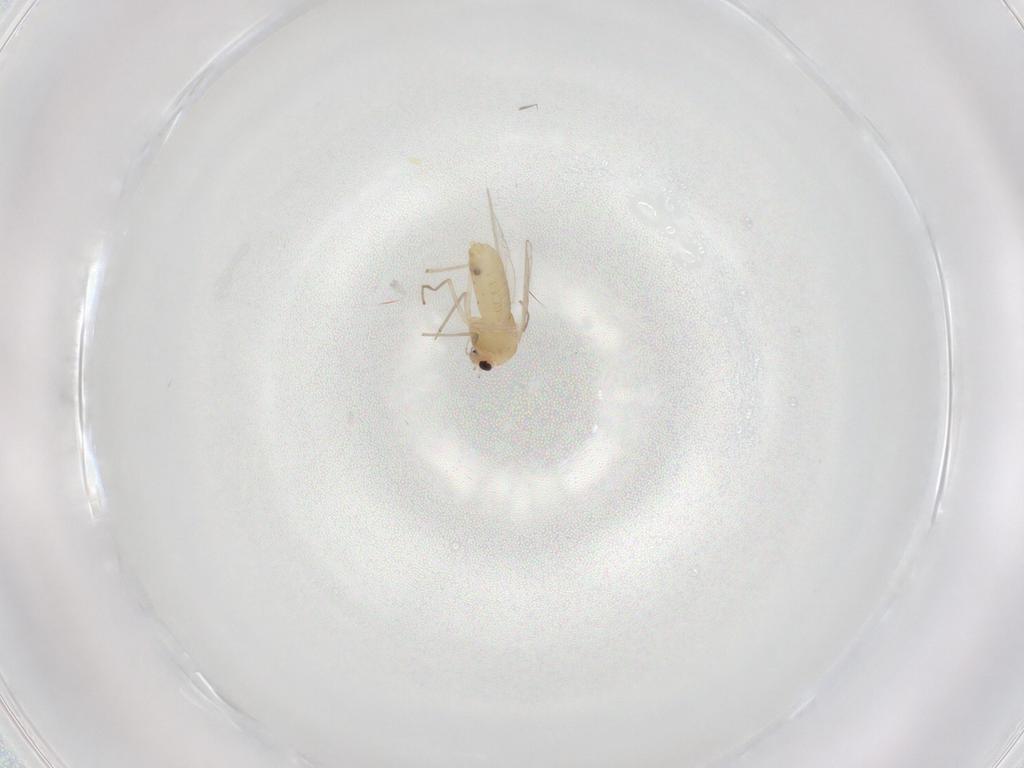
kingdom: Animalia
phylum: Arthropoda
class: Insecta
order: Diptera
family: Chironomidae
